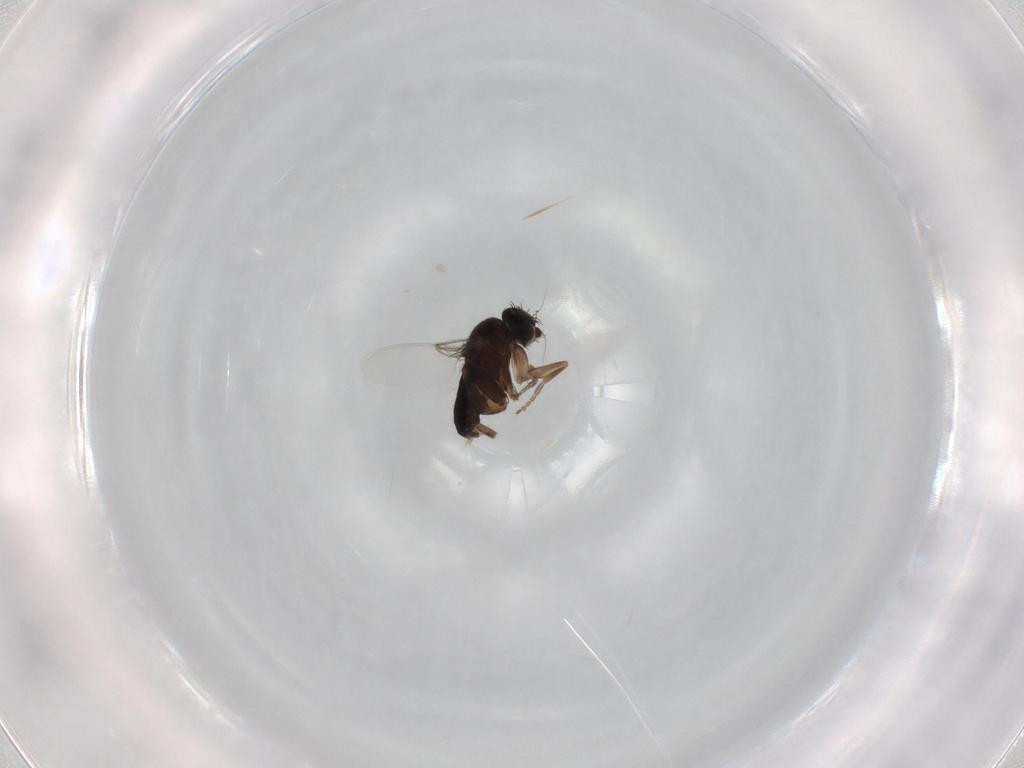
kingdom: Animalia
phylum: Arthropoda
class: Insecta
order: Diptera
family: Phoridae
